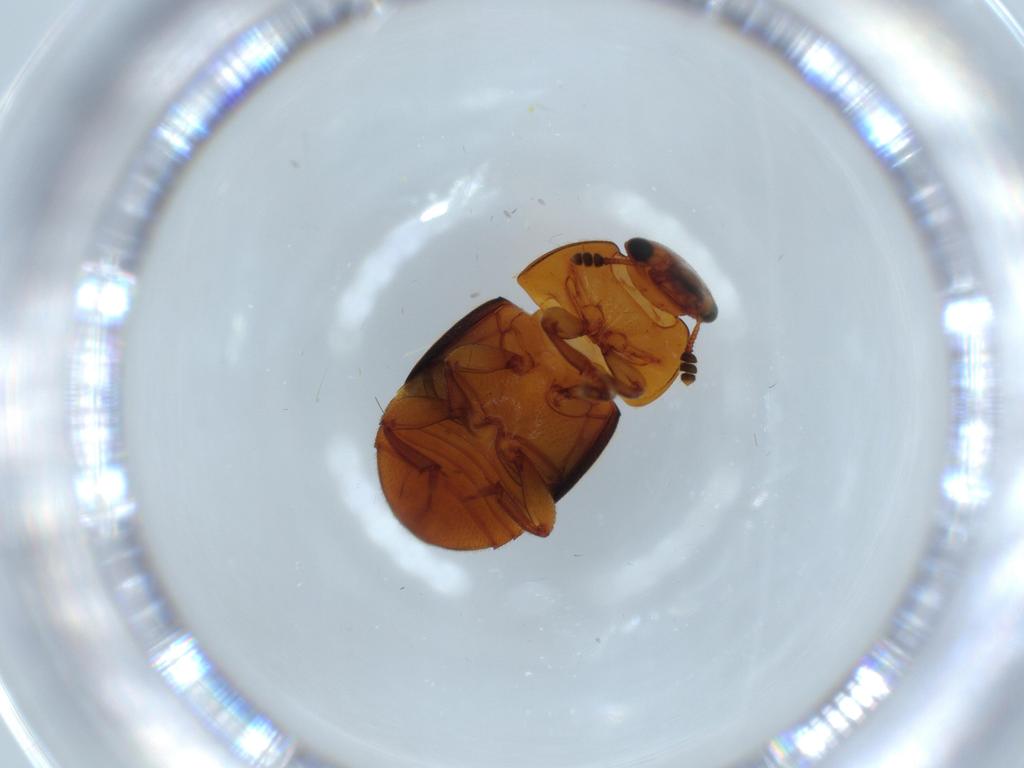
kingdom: Animalia
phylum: Arthropoda
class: Insecta
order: Coleoptera
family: Nitidulidae
